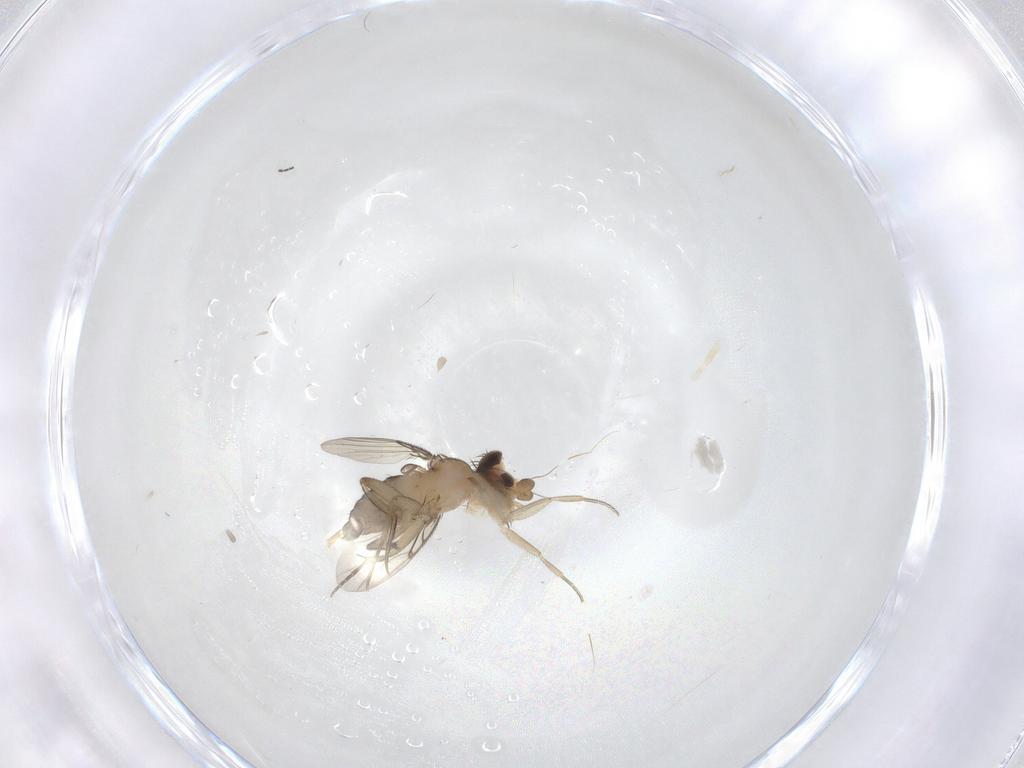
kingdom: Animalia
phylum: Arthropoda
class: Insecta
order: Diptera
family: Phoridae
